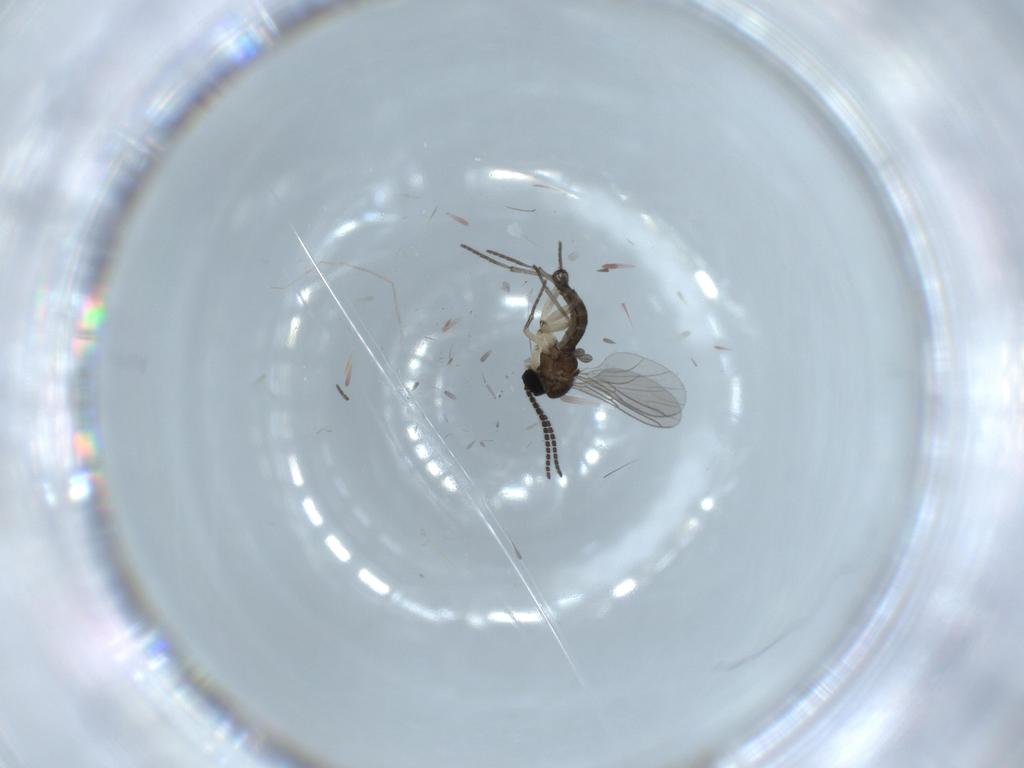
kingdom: Animalia
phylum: Arthropoda
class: Insecta
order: Diptera
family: Sciaridae
